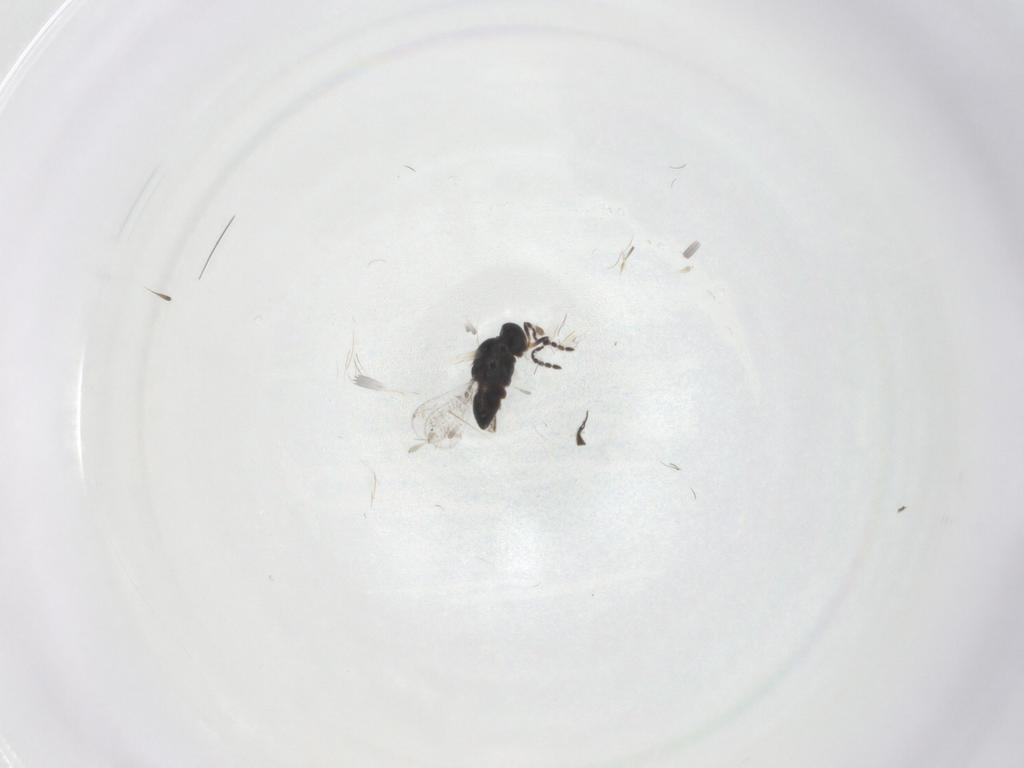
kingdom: Animalia
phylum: Arthropoda
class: Insecta
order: Hymenoptera
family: Platygastridae
